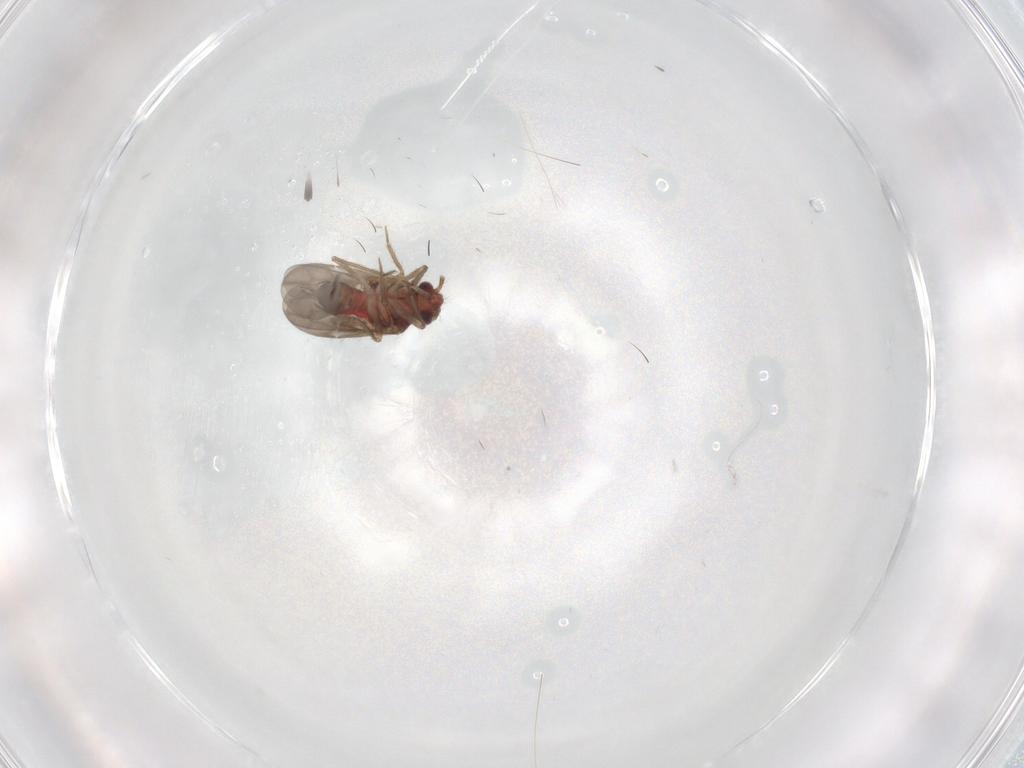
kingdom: Animalia
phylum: Arthropoda
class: Insecta
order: Hemiptera
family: Ceratocombidae
